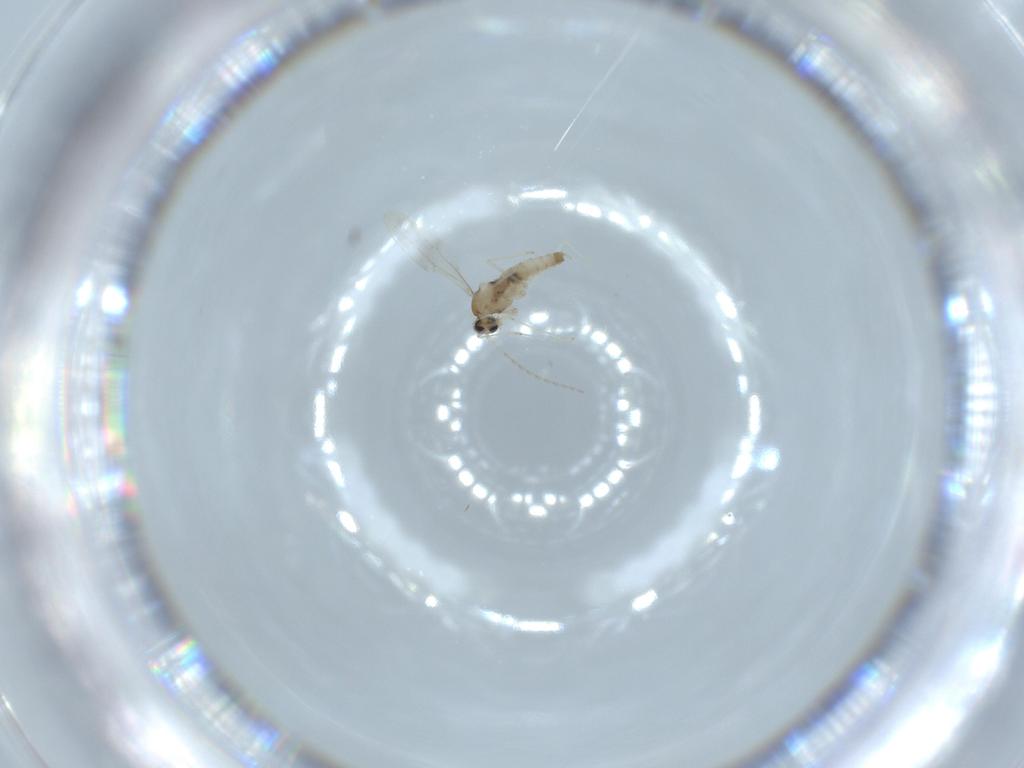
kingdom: Animalia
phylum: Arthropoda
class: Insecta
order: Diptera
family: Cecidomyiidae
